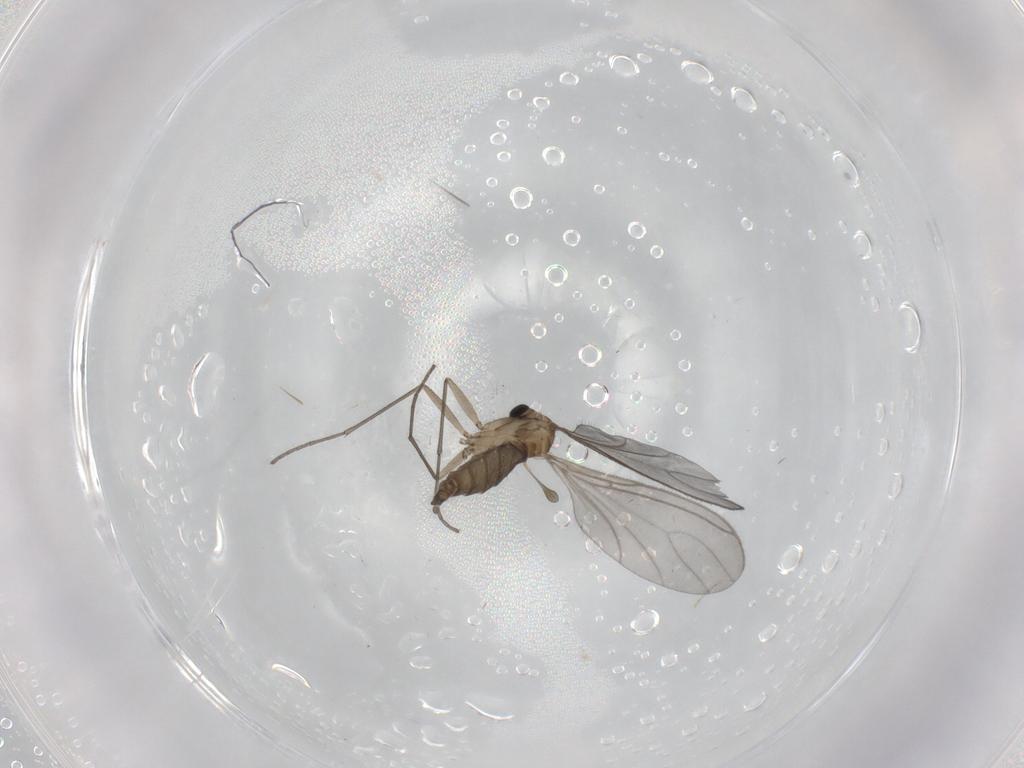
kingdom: Animalia
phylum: Arthropoda
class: Insecta
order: Diptera
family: Sciaridae
